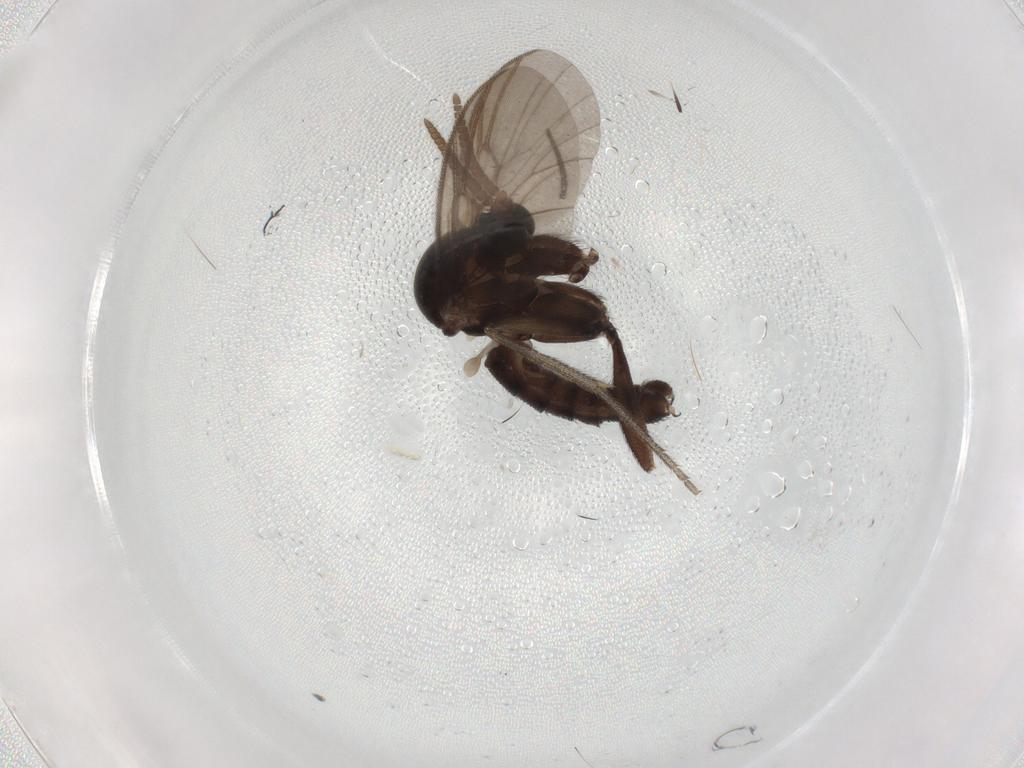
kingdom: Animalia
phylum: Arthropoda
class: Insecta
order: Diptera
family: Mycetophilidae
